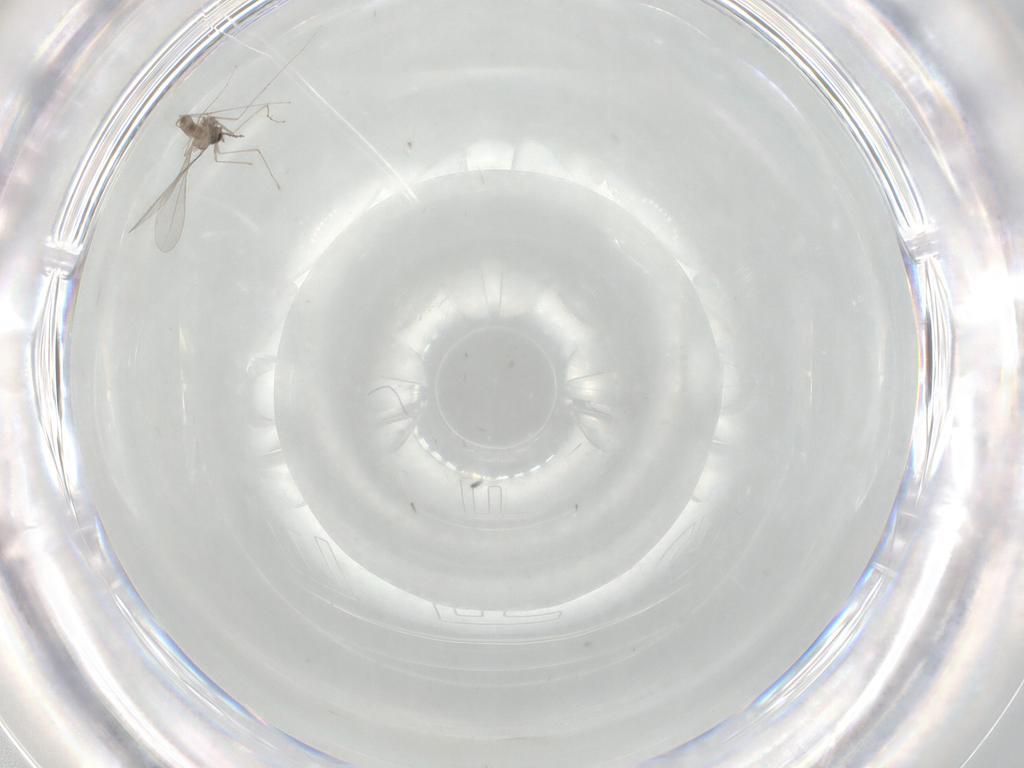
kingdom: Animalia
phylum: Arthropoda
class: Insecta
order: Diptera
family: Cecidomyiidae
